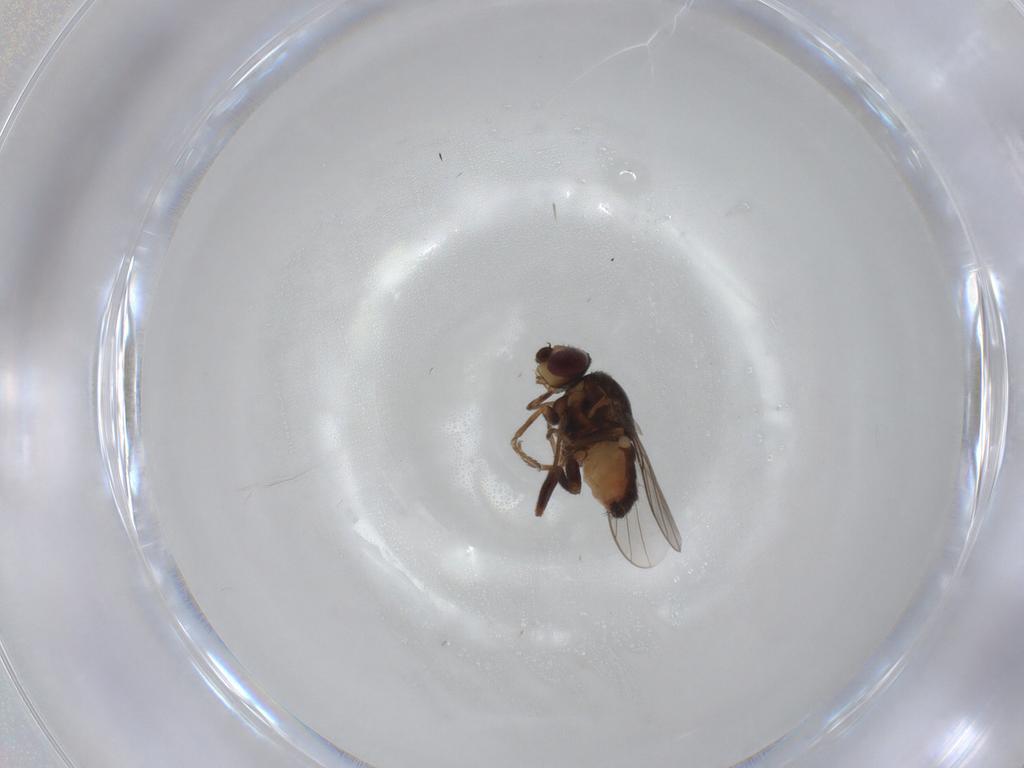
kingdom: Animalia
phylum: Arthropoda
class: Insecta
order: Diptera
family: Chloropidae
